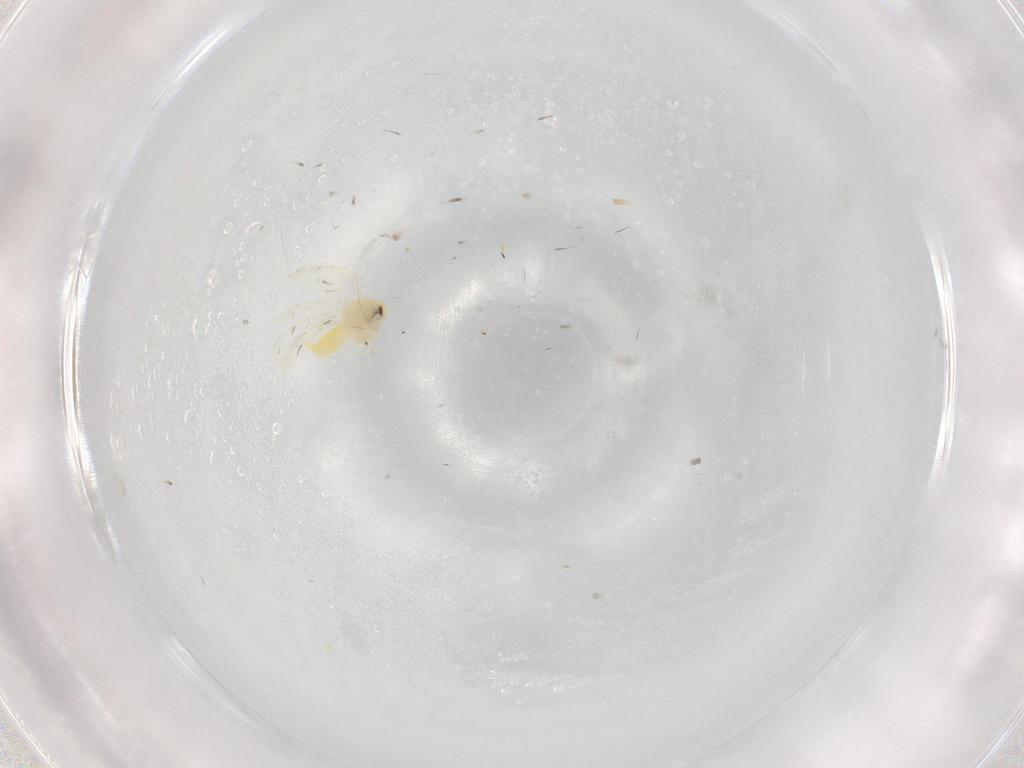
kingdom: Animalia
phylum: Arthropoda
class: Insecta
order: Hemiptera
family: Aleyrodidae
